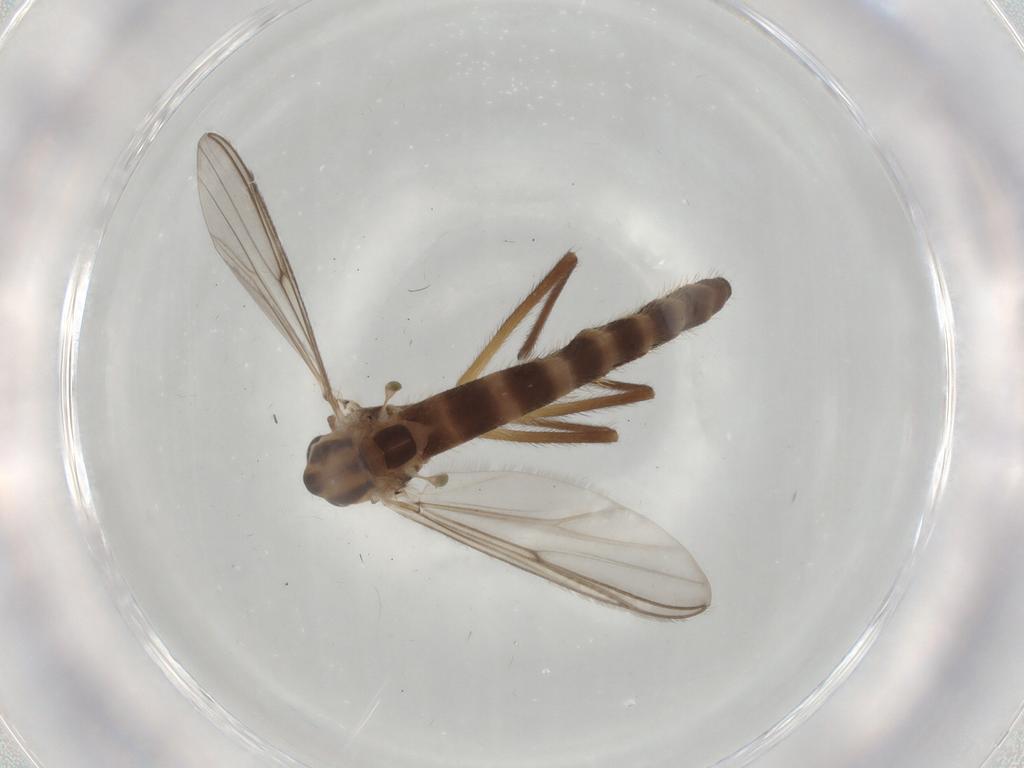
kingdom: Animalia
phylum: Arthropoda
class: Insecta
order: Diptera
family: Chironomidae
